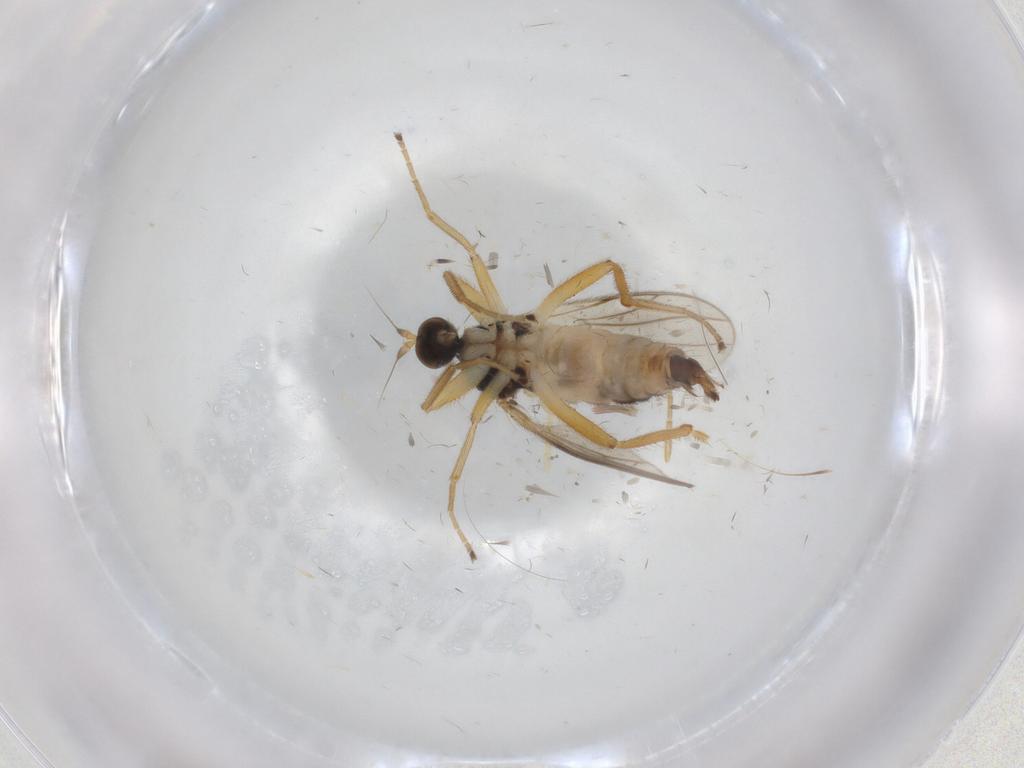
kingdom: Animalia
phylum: Arthropoda
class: Insecta
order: Diptera
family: Hybotidae
